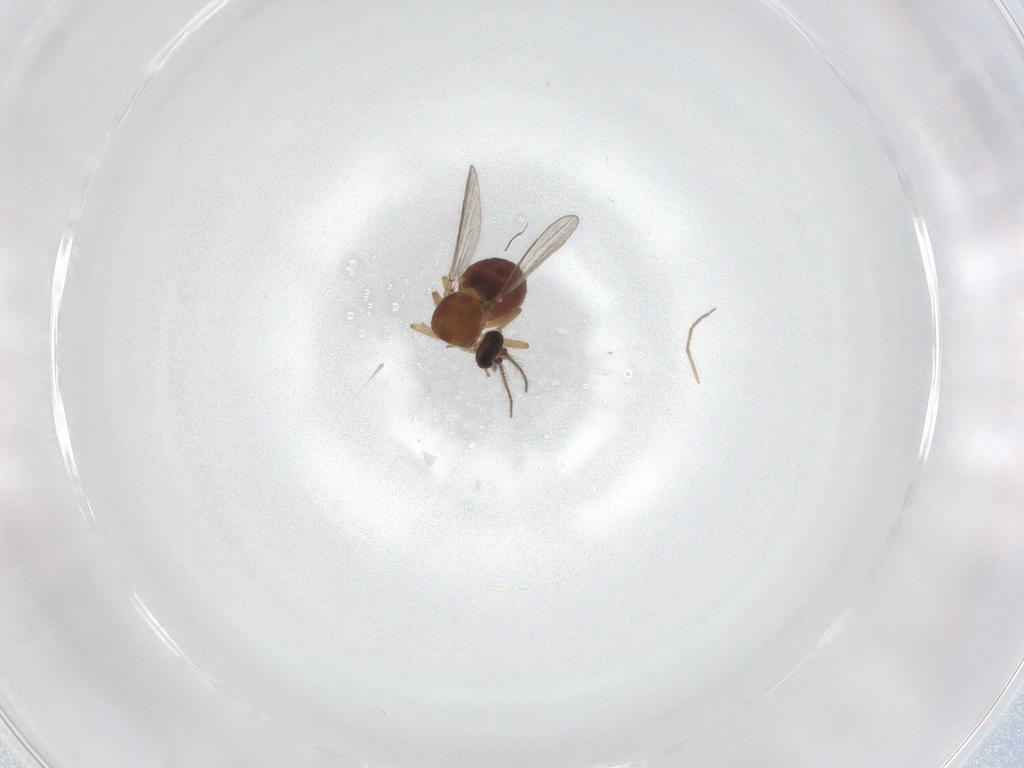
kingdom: Animalia
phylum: Arthropoda
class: Insecta
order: Diptera
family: Ceratopogonidae
